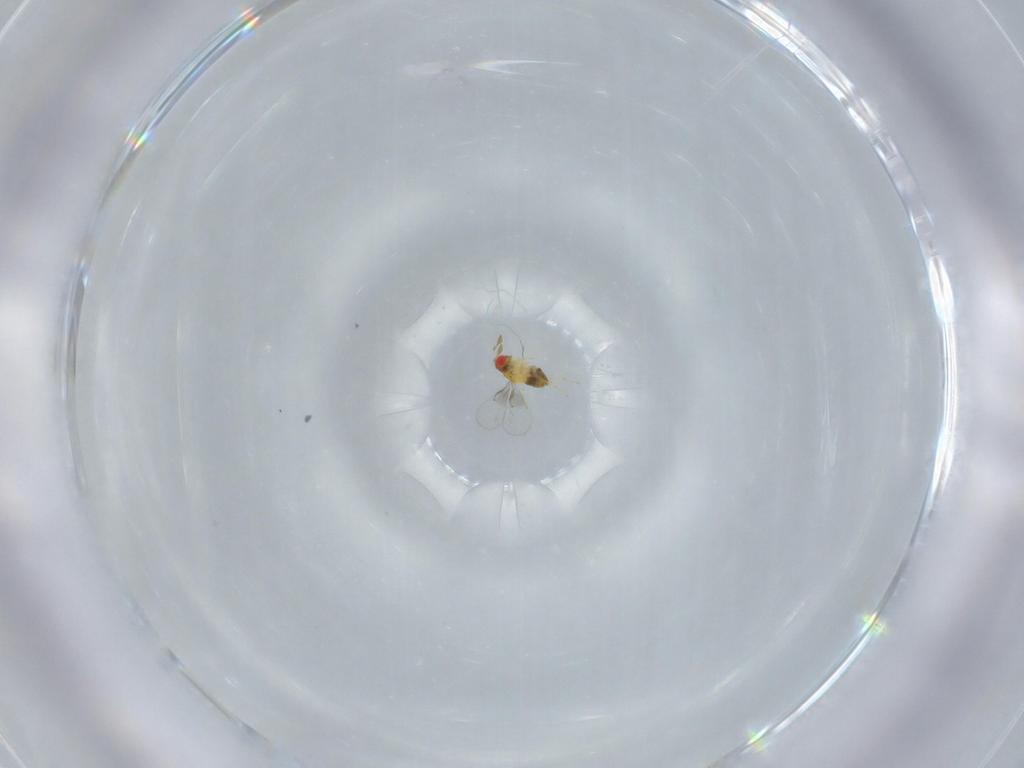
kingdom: Animalia
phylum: Arthropoda
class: Insecta
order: Hymenoptera
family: Trichogrammatidae
